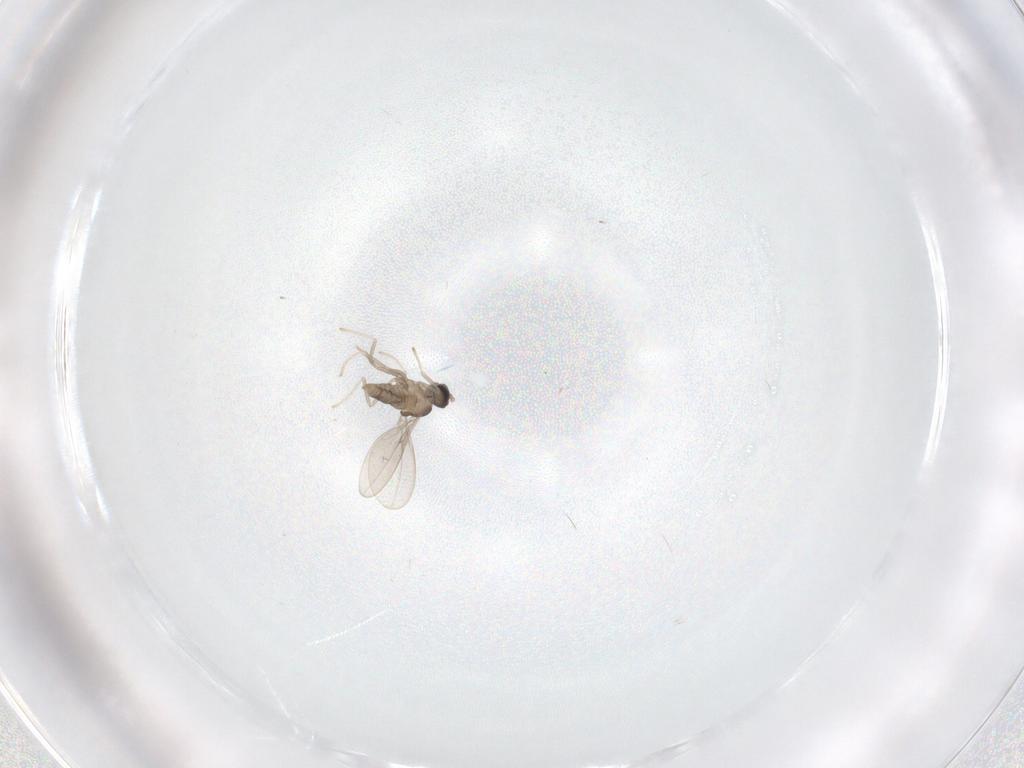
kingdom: Animalia
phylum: Arthropoda
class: Insecta
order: Diptera
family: Cecidomyiidae
